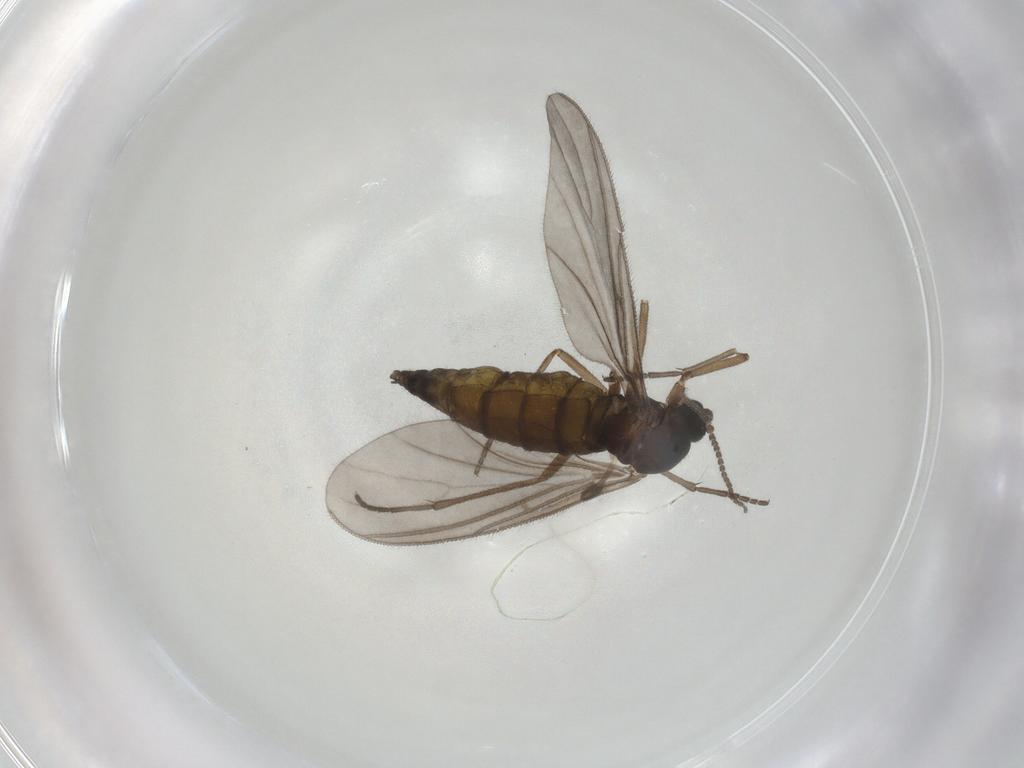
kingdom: Animalia
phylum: Arthropoda
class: Insecta
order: Diptera
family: Sciaridae
